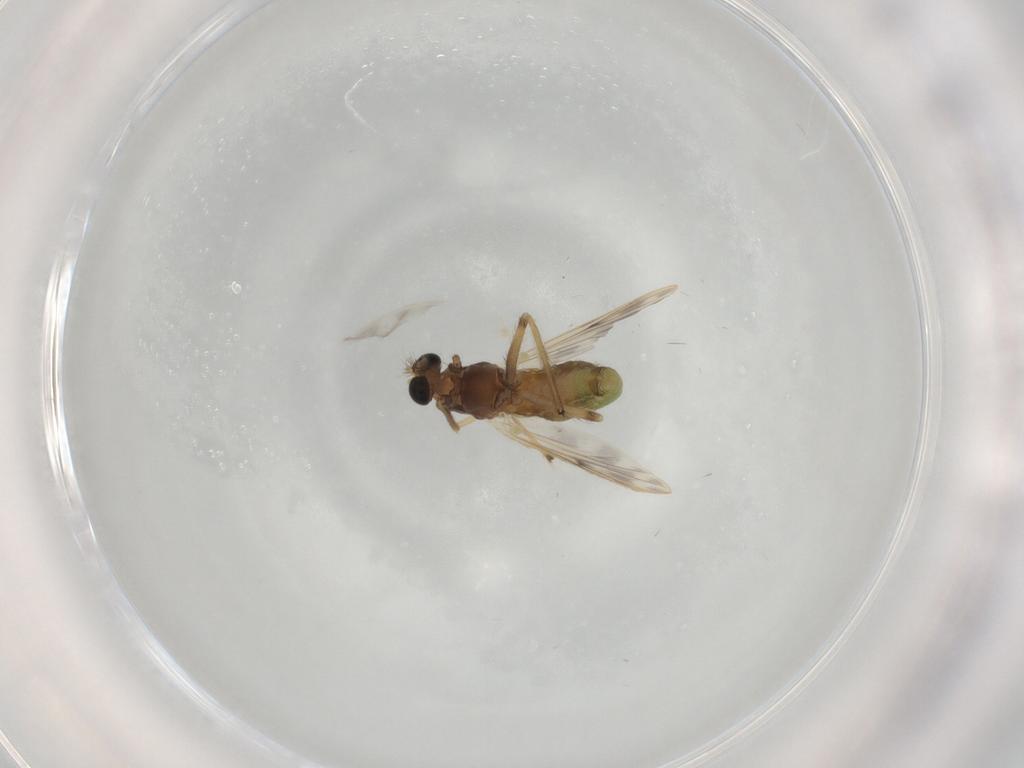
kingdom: Animalia
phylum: Arthropoda
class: Insecta
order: Diptera
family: Chironomidae
